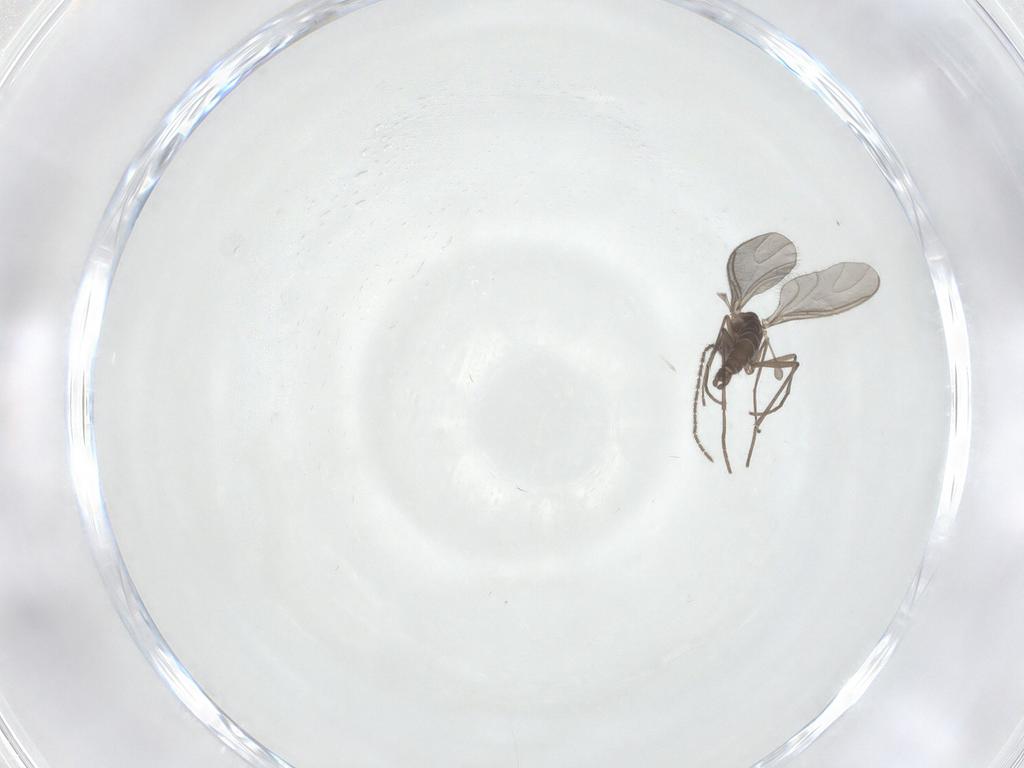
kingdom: Animalia
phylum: Arthropoda
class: Insecta
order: Diptera
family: Sciaridae
